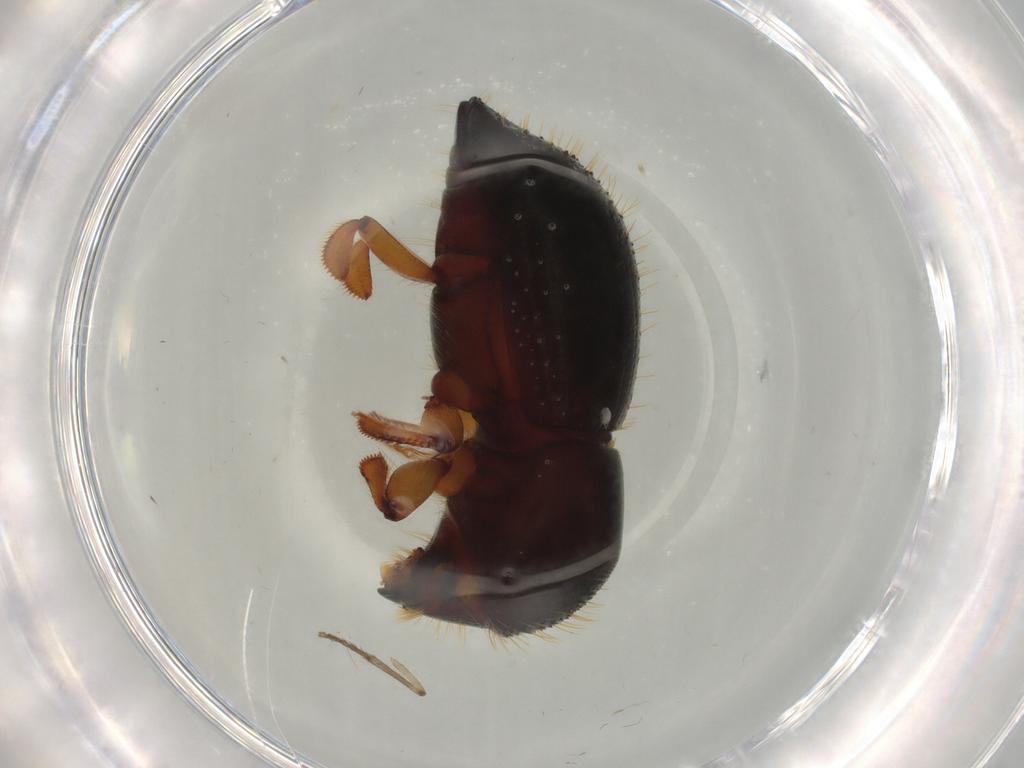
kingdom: Animalia
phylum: Arthropoda
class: Insecta
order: Coleoptera
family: Curculionidae
